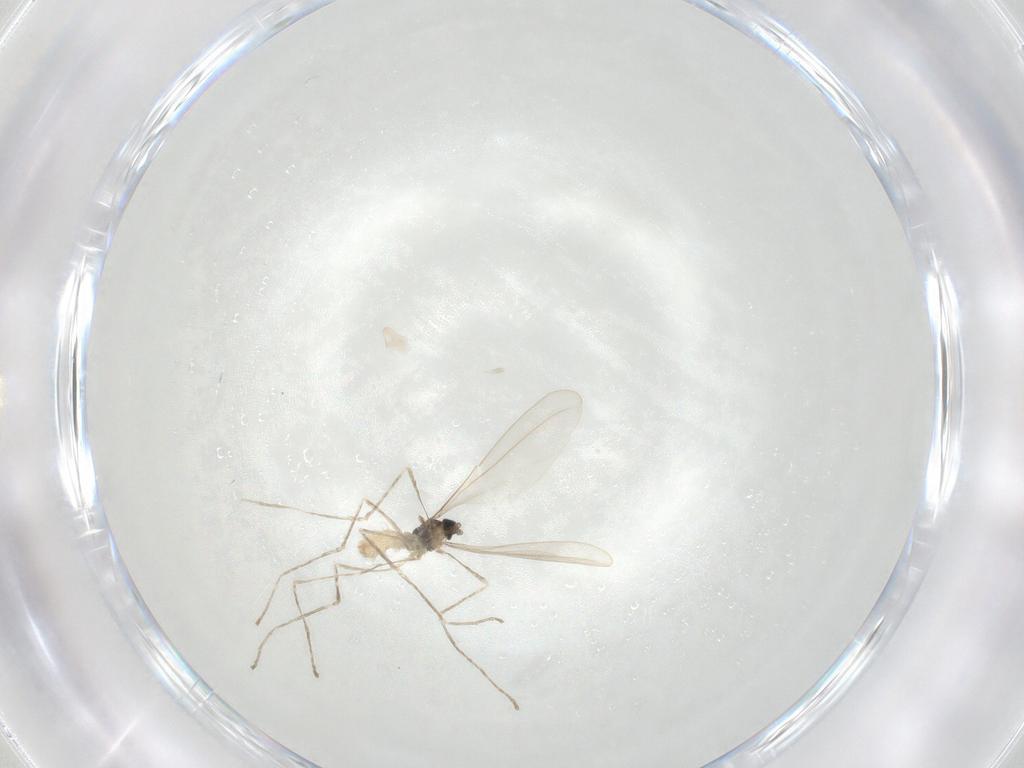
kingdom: Animalia
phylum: Arthropoda
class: Insecta
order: Diptera
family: Cecidomyiidae
